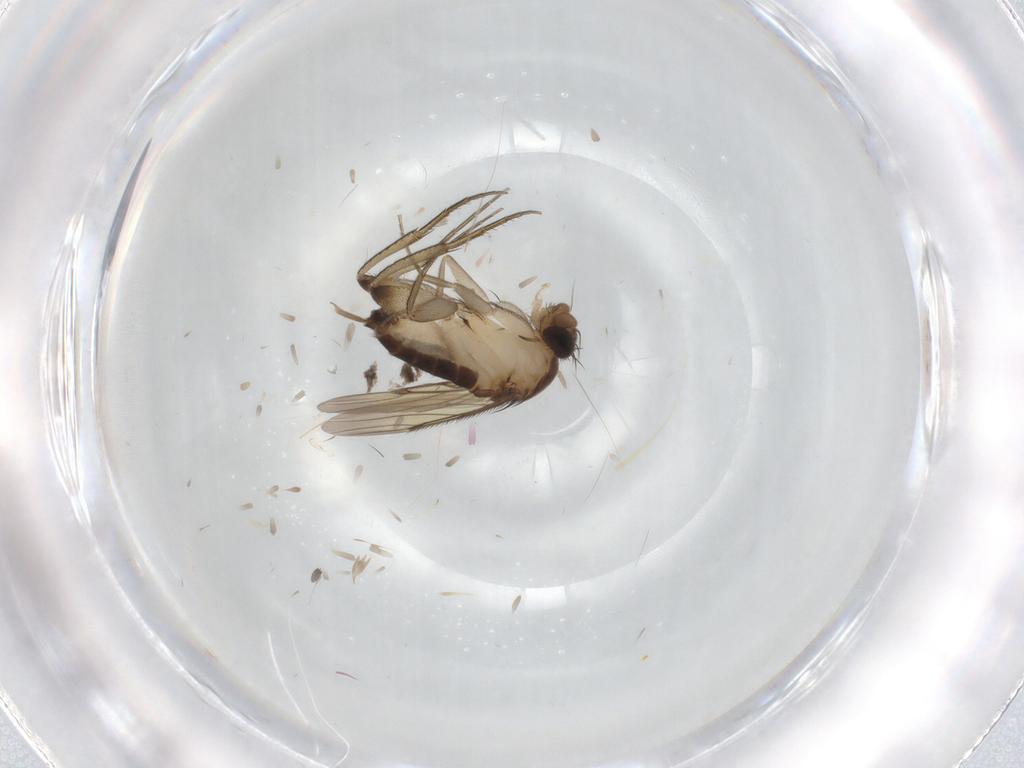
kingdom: Animalia
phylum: Arthropoda
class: Insecta
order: Diptera
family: Phoridae
